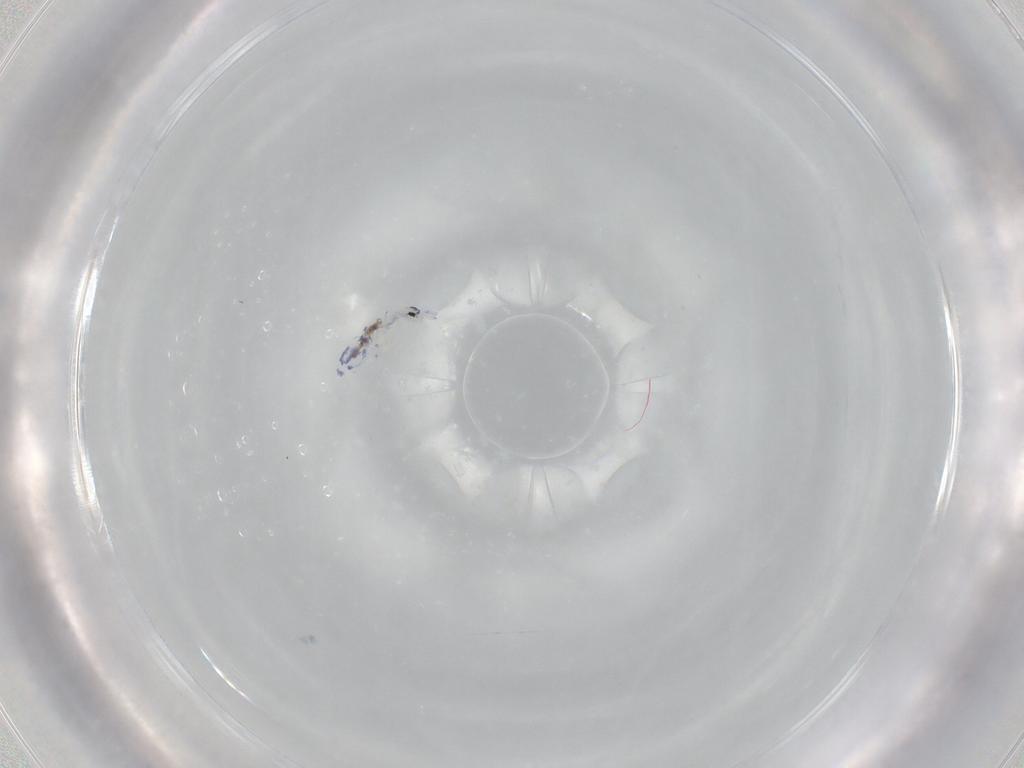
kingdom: Animalia
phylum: Arthropoda
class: Collembola
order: Entomobryomorpha
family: Entomobryidae
